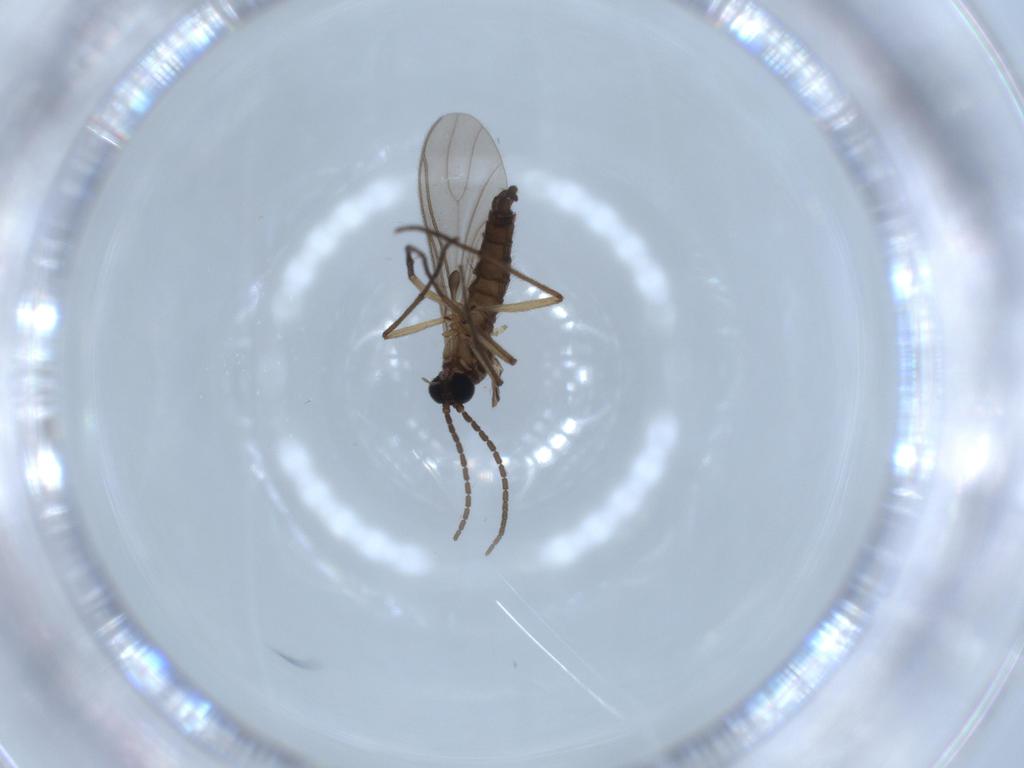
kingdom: Animalia
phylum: Arthropoda
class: Insecta
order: Diptera
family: Sciaridae
